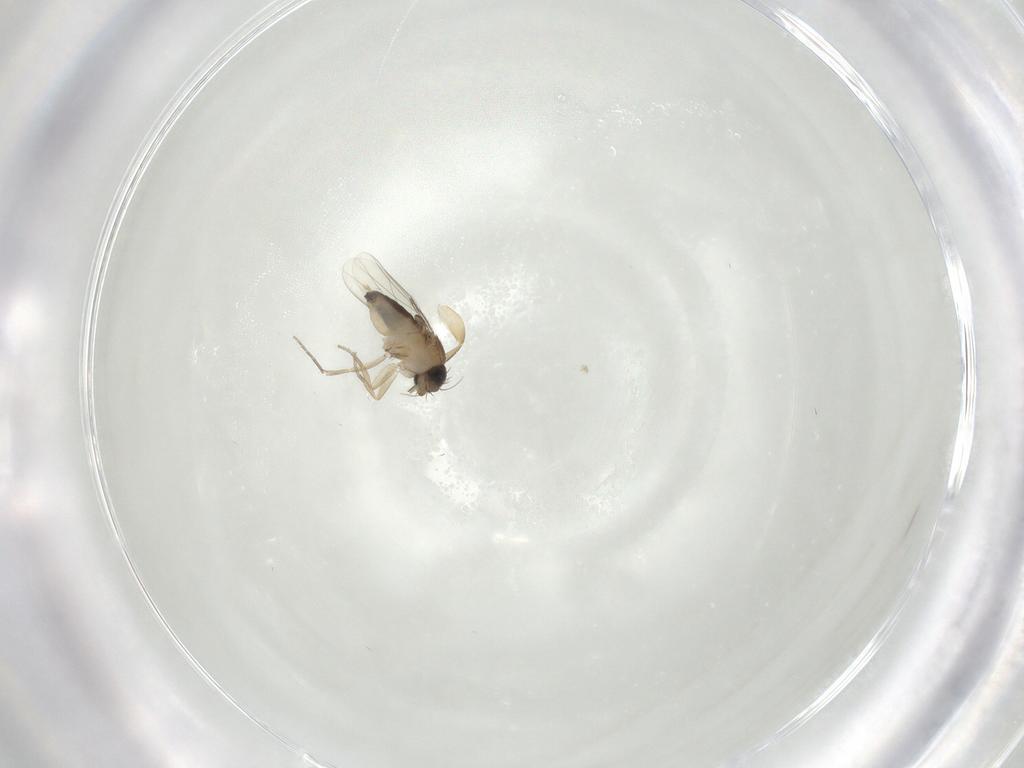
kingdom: Animalia
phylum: Arthropoda
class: Insecta
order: Diptera
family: Phoridae
